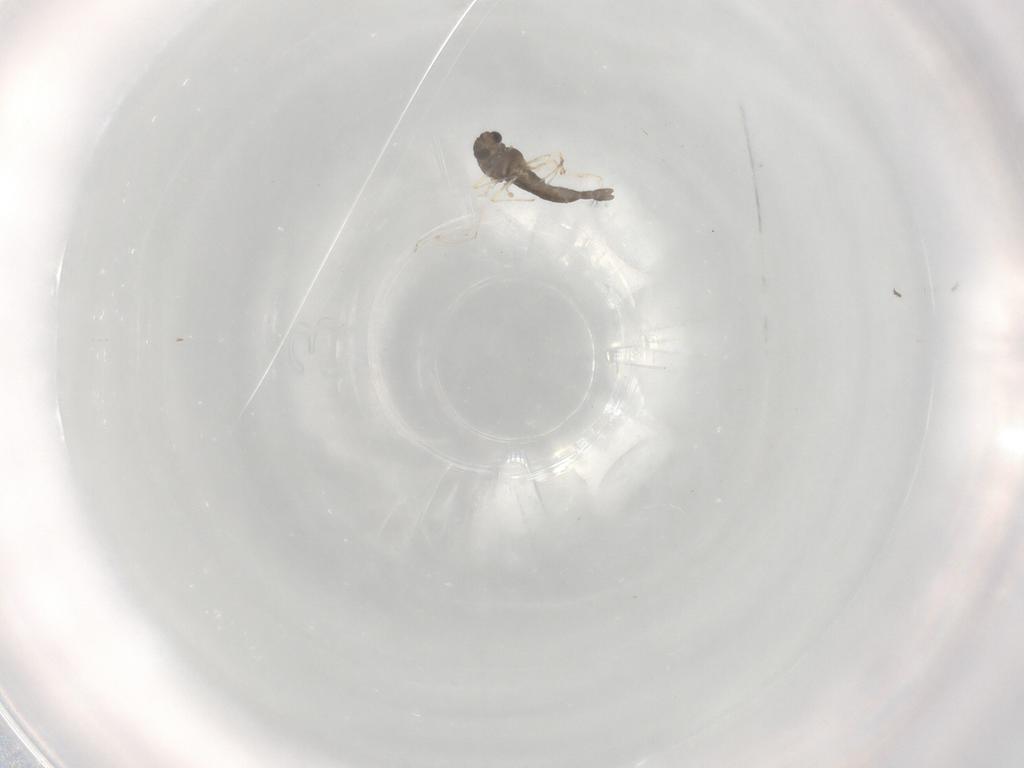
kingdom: Animalia
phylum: Arthropoda
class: Insecta
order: Diptera
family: Chironomidae
